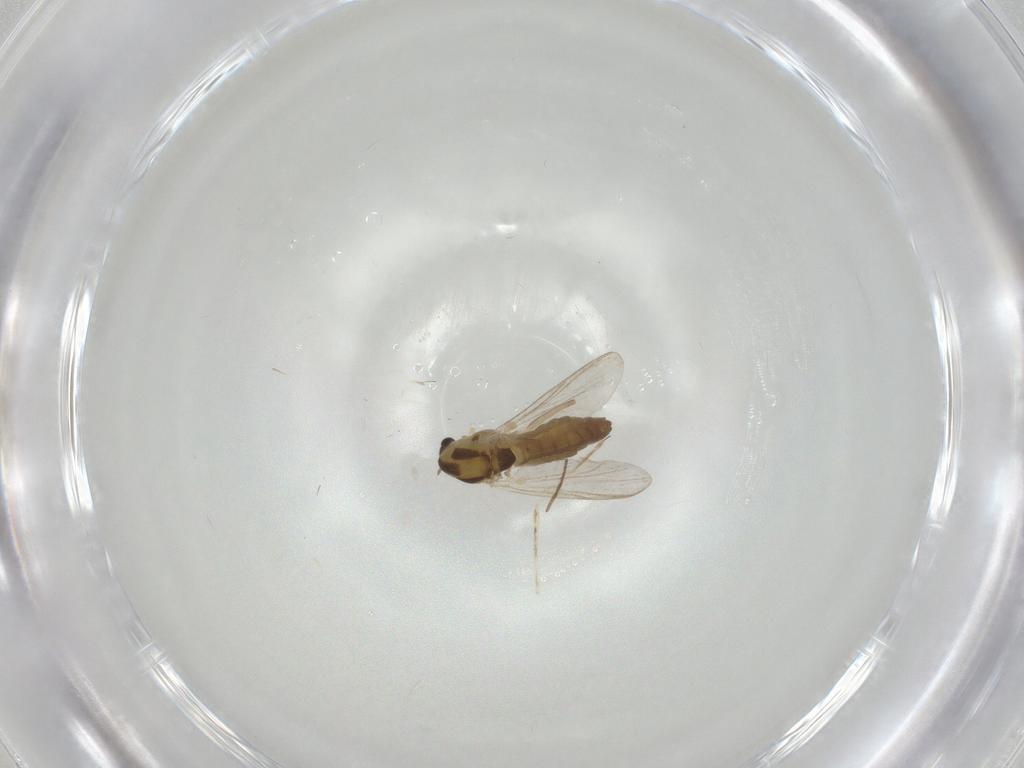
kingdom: Animalia
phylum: Arthropoda
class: Insecta
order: Diptera
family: Chironomidae
